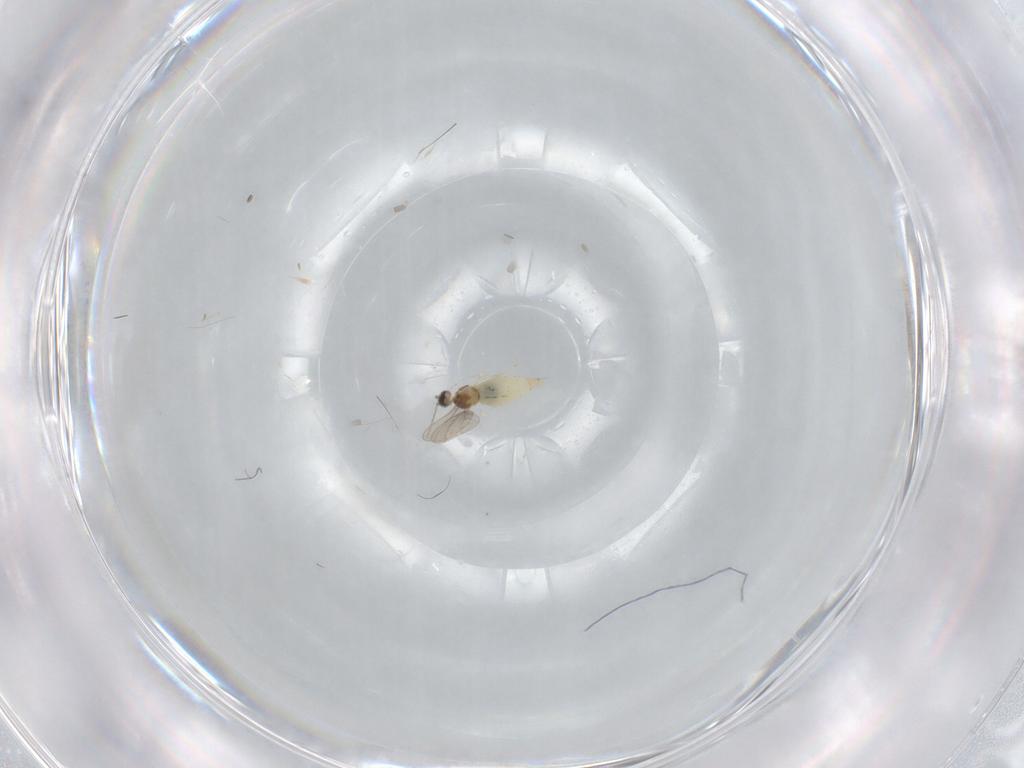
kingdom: Animalia
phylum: Arthropoda
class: Insecta
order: Diptera
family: Cecidomyiidae
